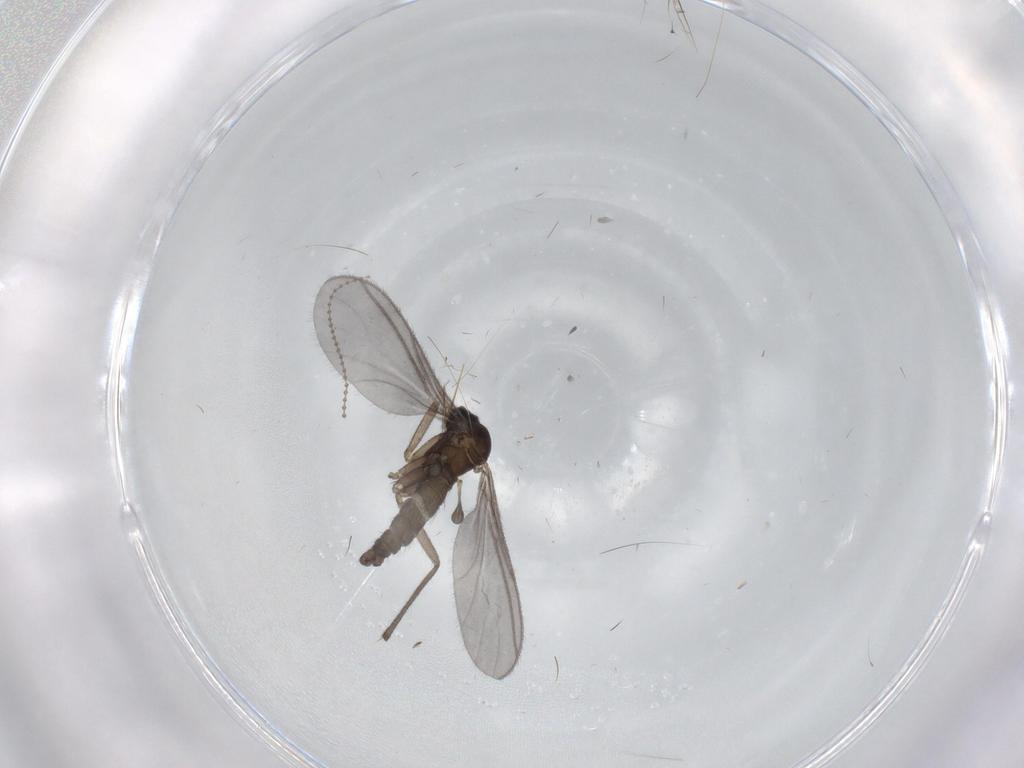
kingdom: Animalia
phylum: Arthropoda
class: Insecta
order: Diptera
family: Sciaridae
